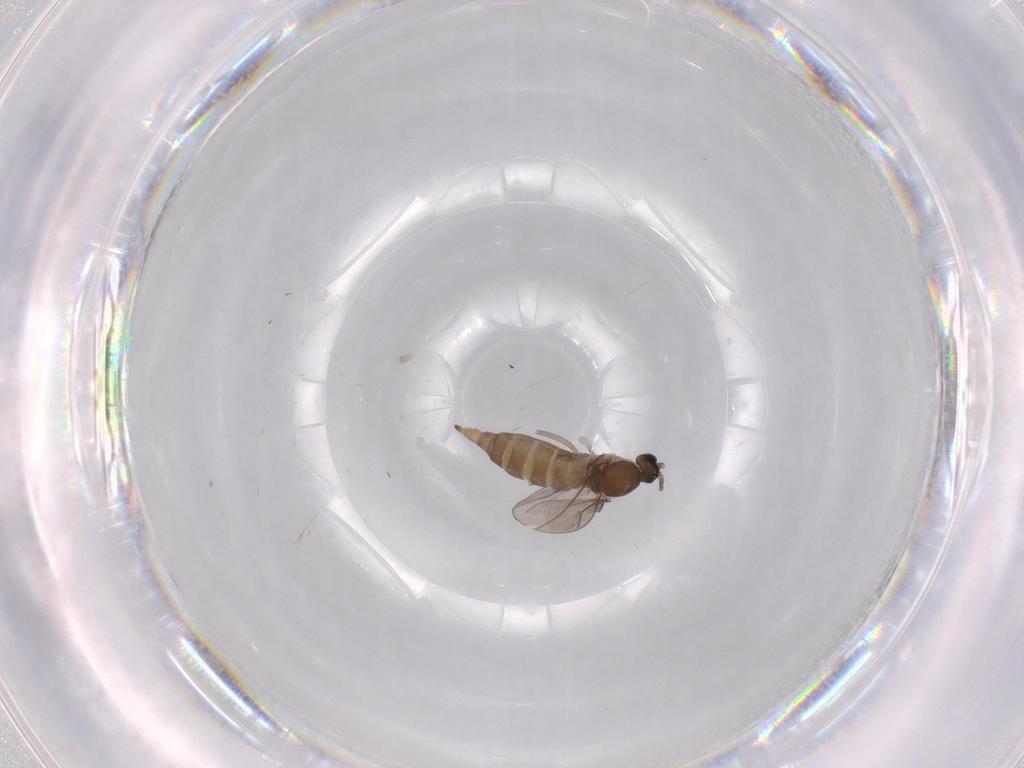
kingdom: Animalia
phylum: Arthropoda
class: Insecta
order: Diptera
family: Cecidomyiidae
